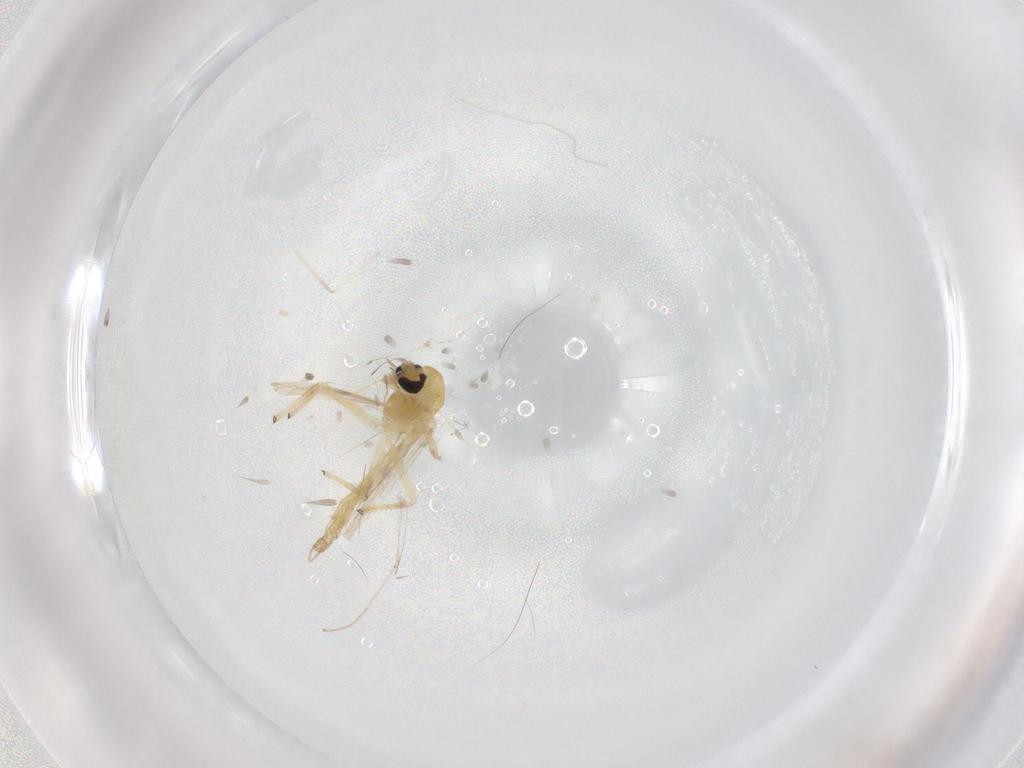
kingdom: Animalia
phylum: Arthropoda
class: Insecta
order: Diptera
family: Chironomidae
